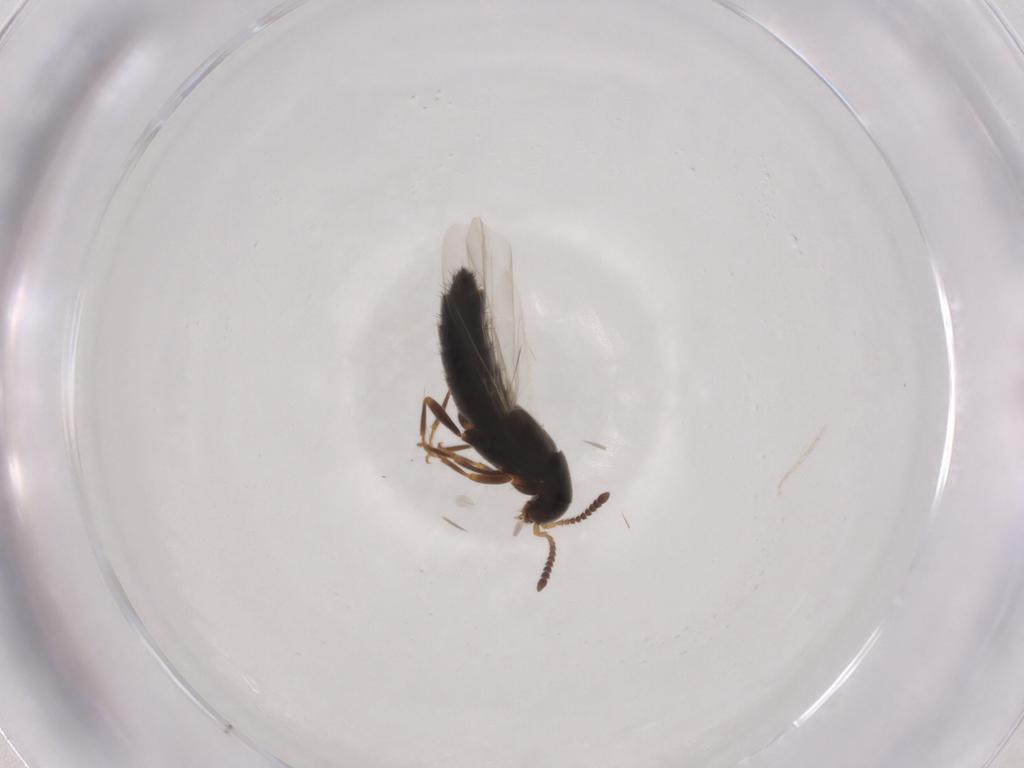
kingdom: Animalia
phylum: Arthropoda
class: Insecta
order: Coleoptera
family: Staphylinidae
